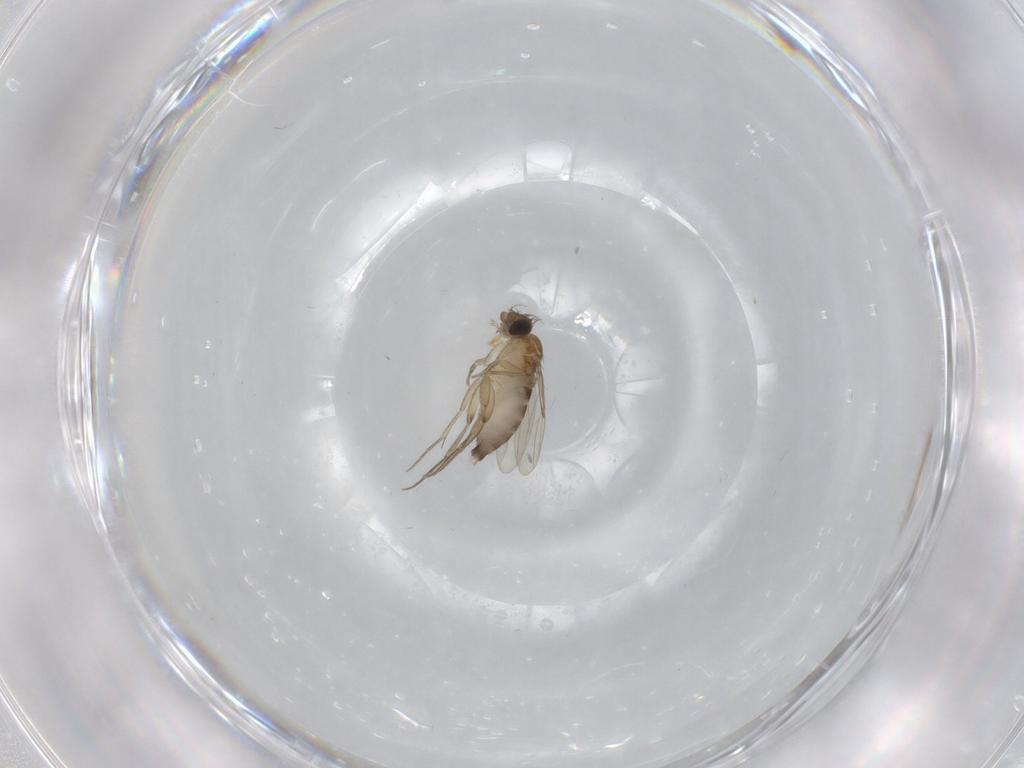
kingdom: Animalia
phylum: Arthropoda
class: Insecta
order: Diptera
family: Phoridae
